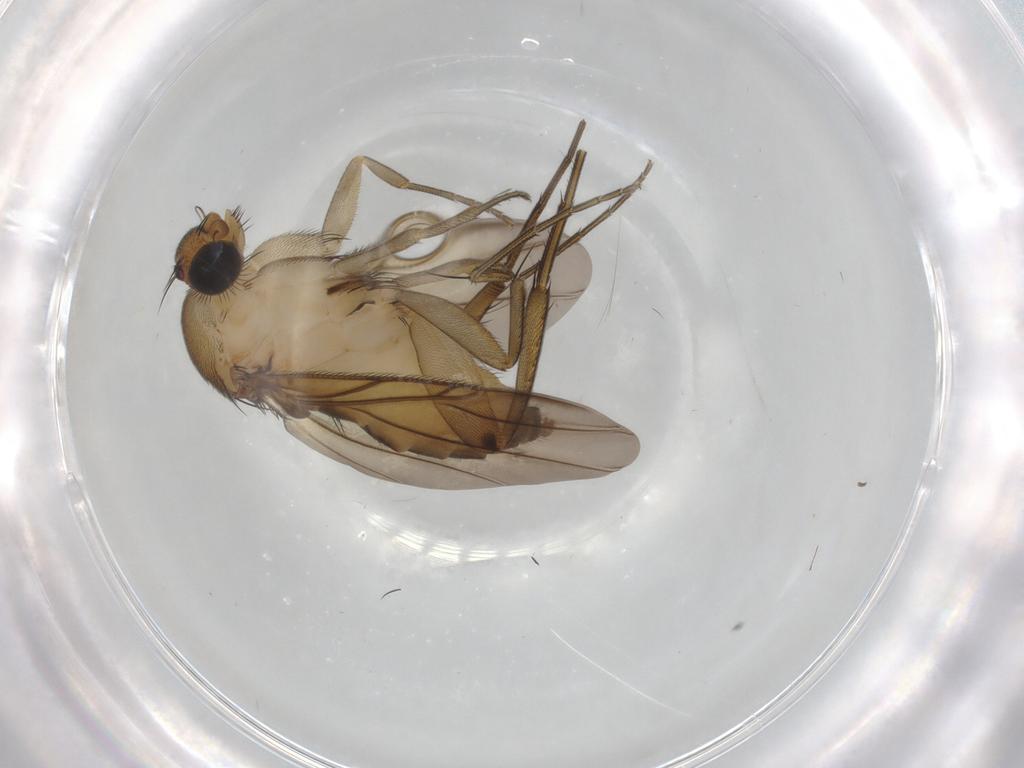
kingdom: Animalia
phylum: Arthropoda
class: Insecta
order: Diptera
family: Phoridae
